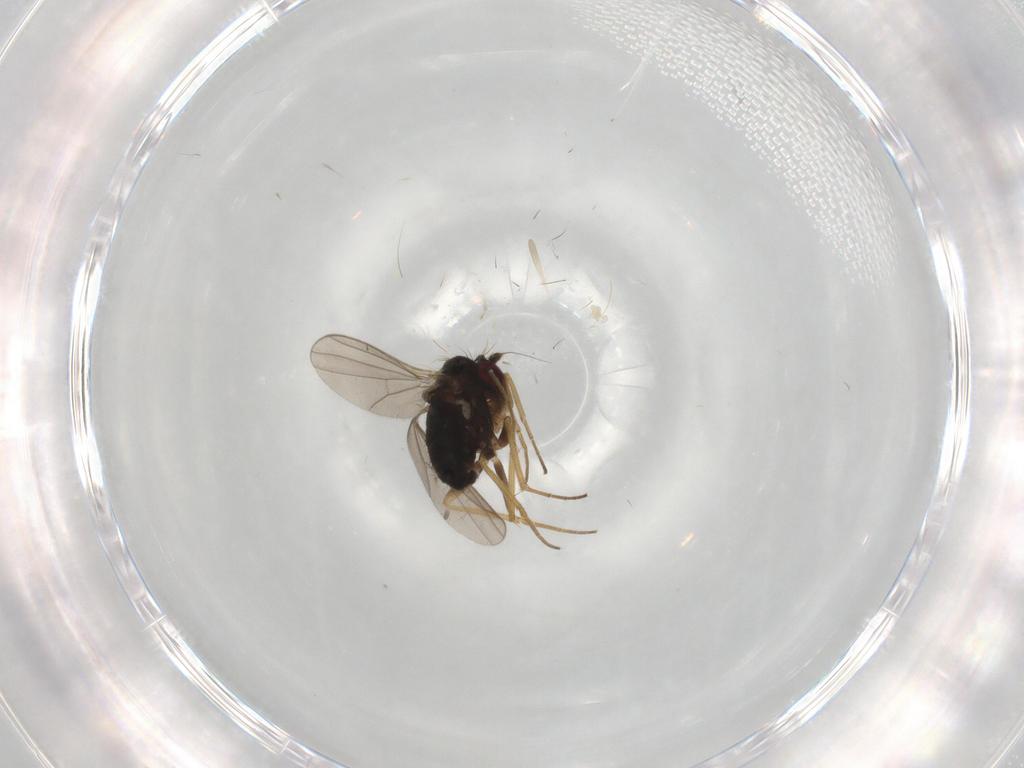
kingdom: Animalia
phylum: Arthropoda
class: Insecta
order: Diptera
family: Dolichopodidae
